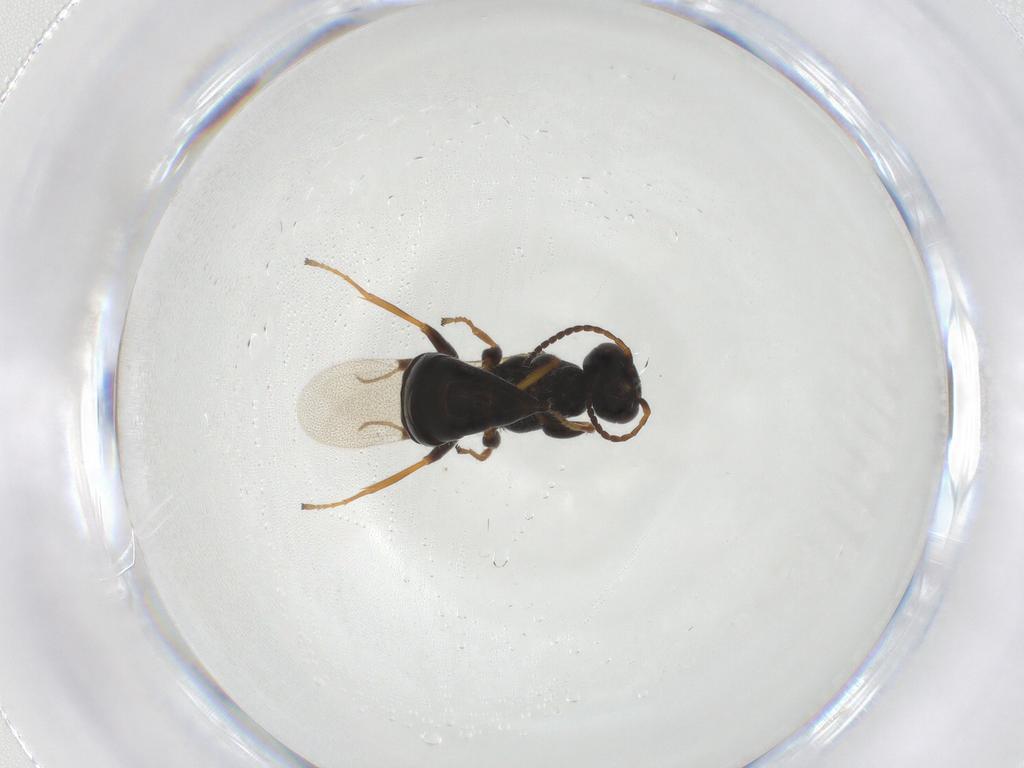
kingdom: Animalia
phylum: Arthropoda
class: Insecta
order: Hymenoptera
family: Bethylidae
